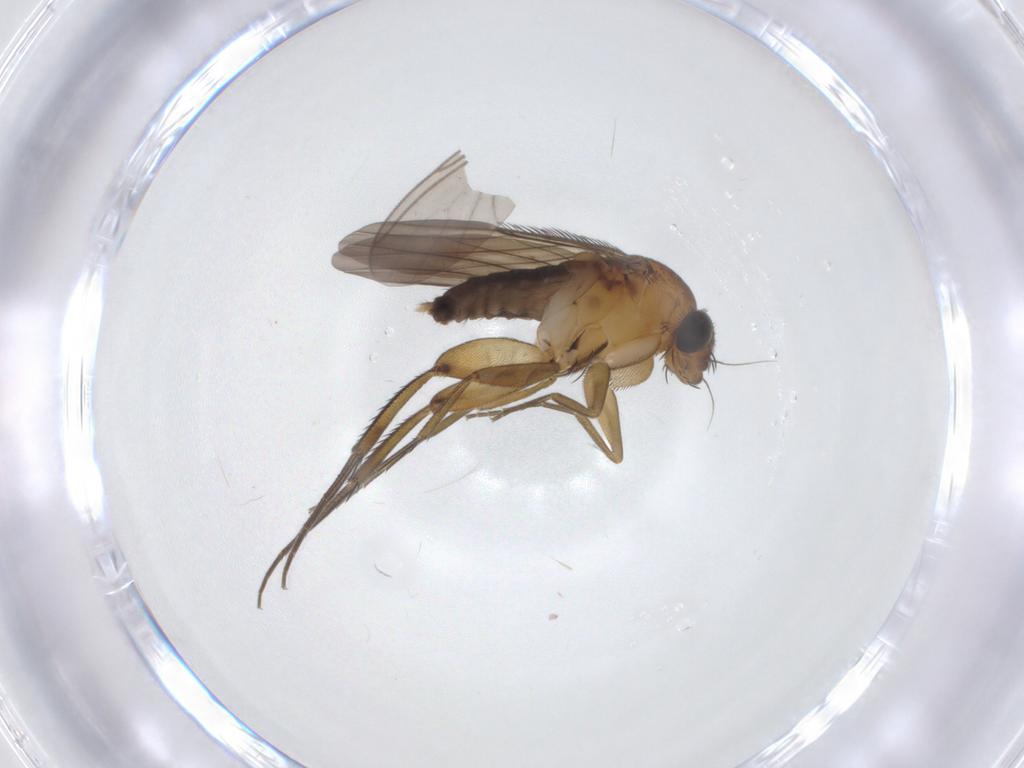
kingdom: Animalia
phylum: Arthropoda
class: Insecta
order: Diptera
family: Phoridae
